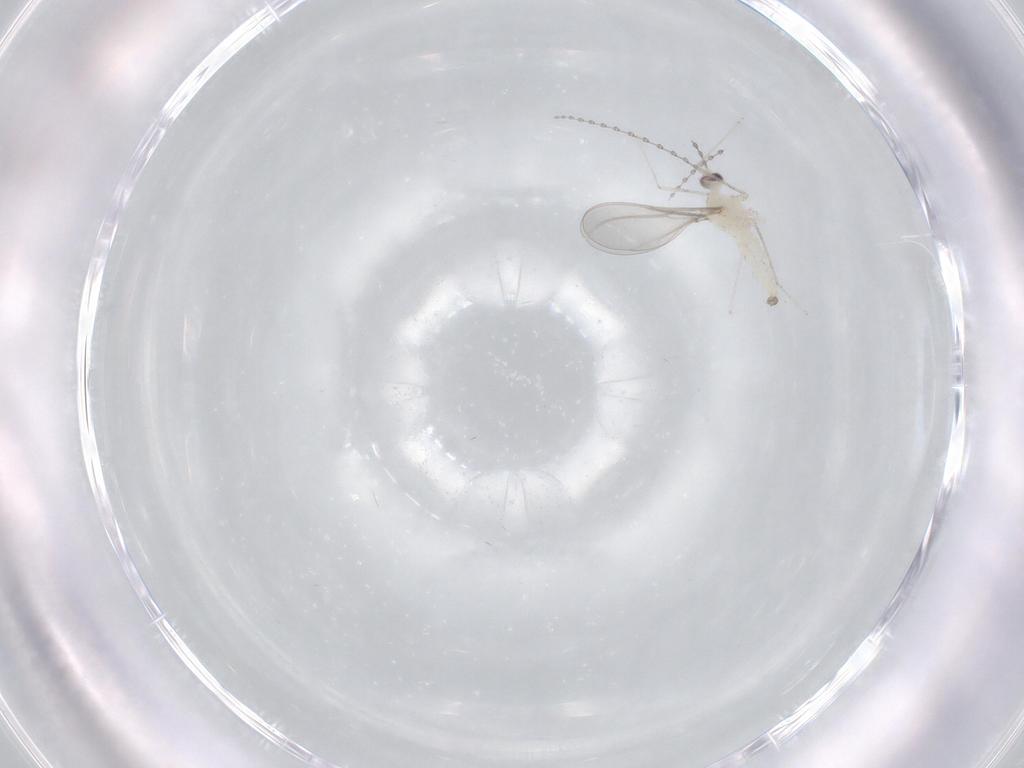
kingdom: Animalia
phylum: Arthropoda
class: Insecta
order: Diptera
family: Cecidomyiidae
